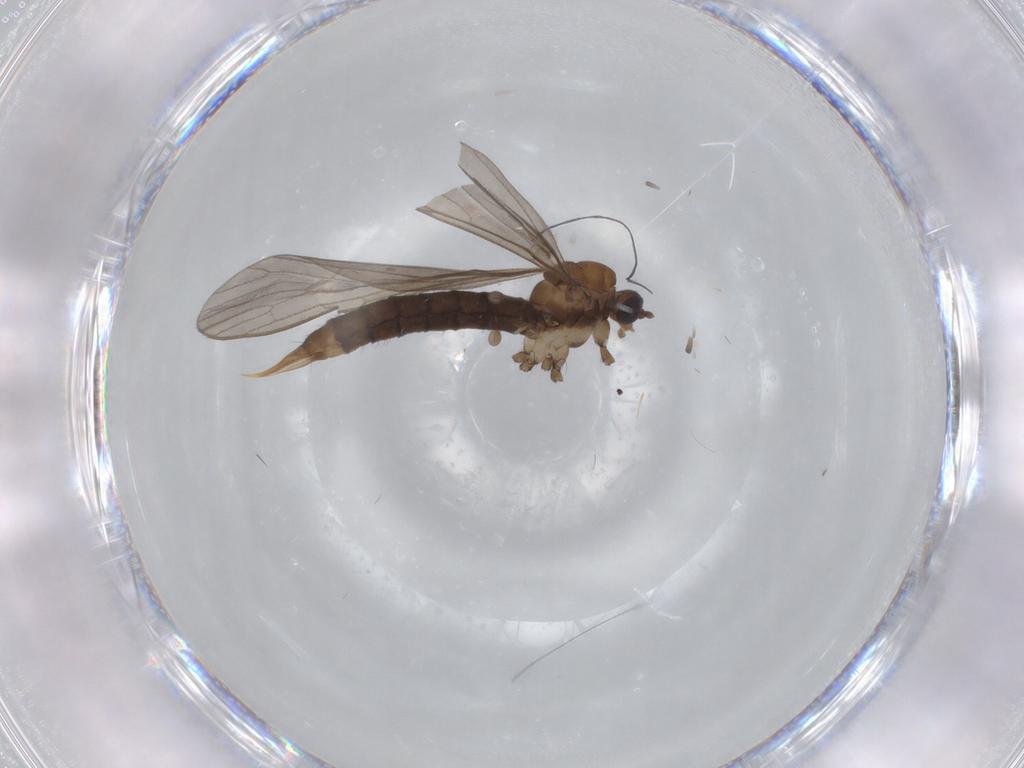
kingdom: Animalia
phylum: Arthropoda
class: Insecta
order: Diptera
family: Limoniidae
